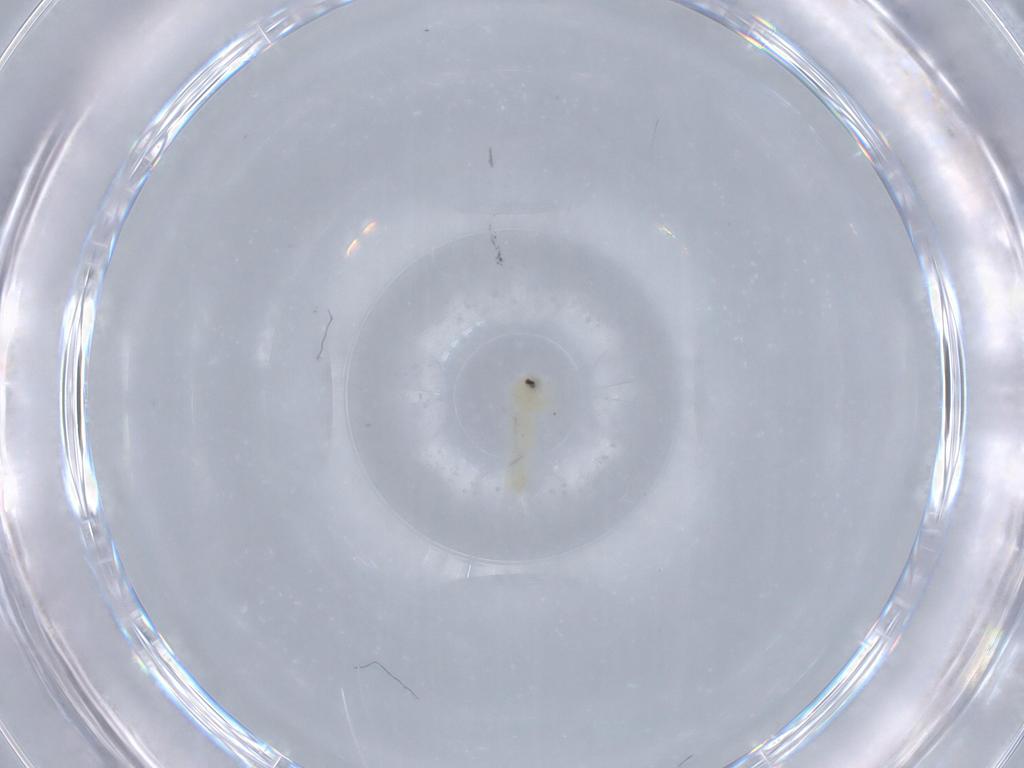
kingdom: Animalia
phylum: Arthropoda
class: Insecta
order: Hemiptera
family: Aleyrodidae
